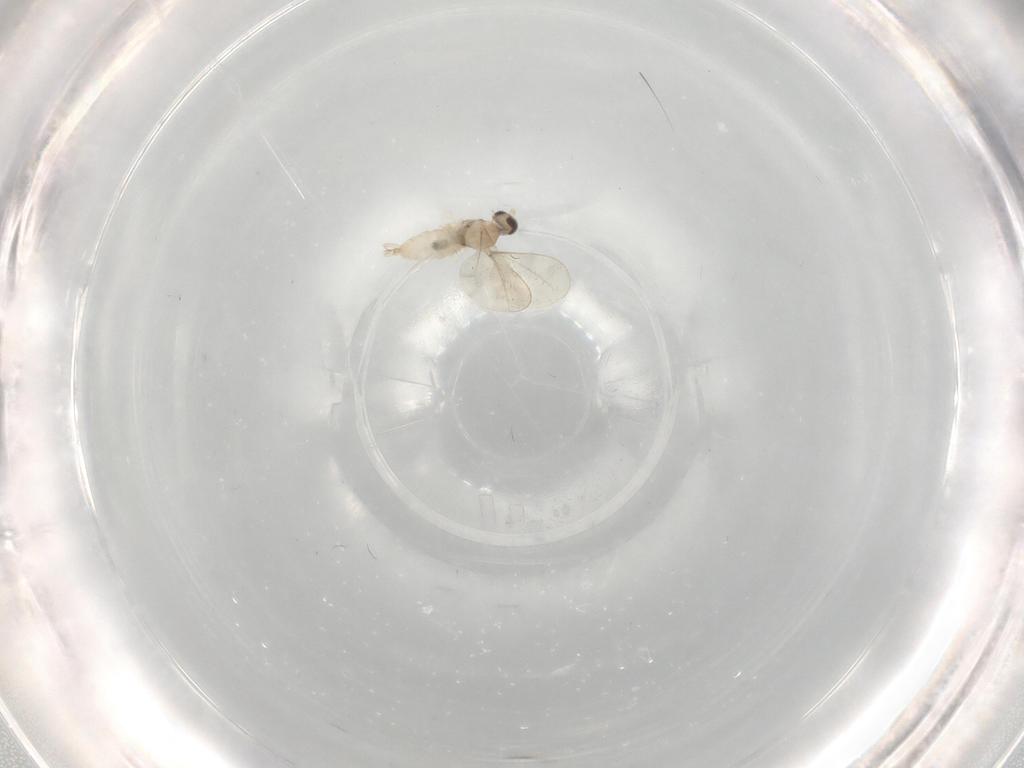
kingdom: Animalia
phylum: Arthropoda
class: Insecta
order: Diptera
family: Cecidomyiidae
